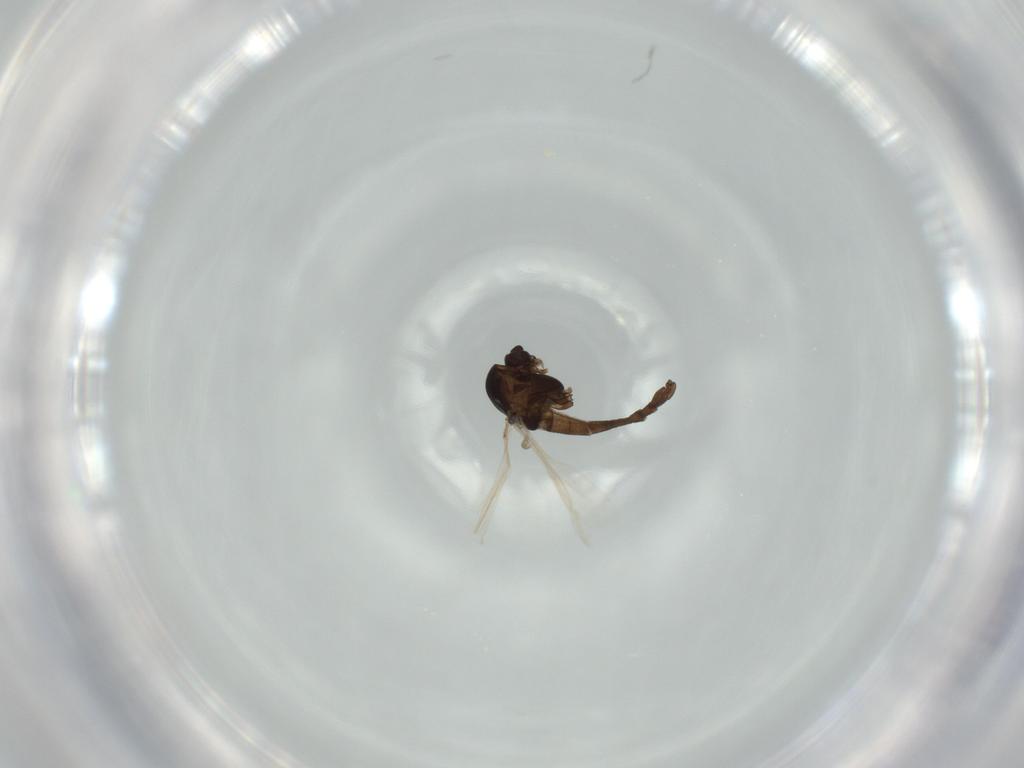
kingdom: Animalia
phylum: Arthropoda
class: Insecta
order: Diptera
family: Chironomidae
